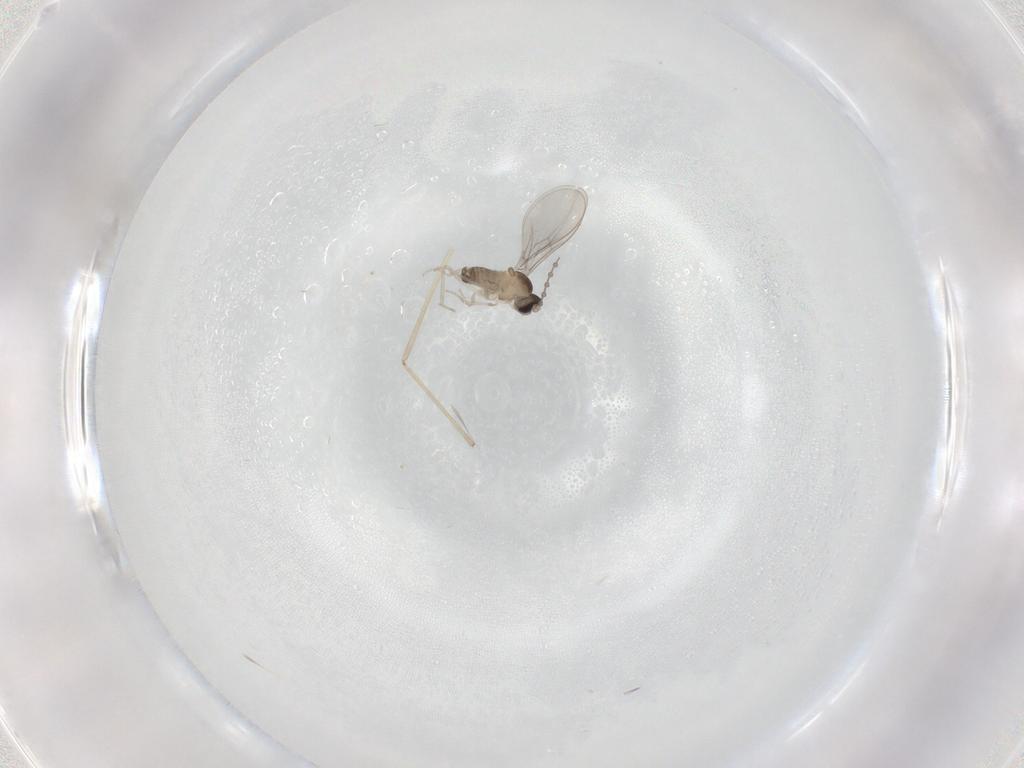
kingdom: Animalia
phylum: Arthropoda
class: Insecta
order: Diptera
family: Cecidomyiidae
